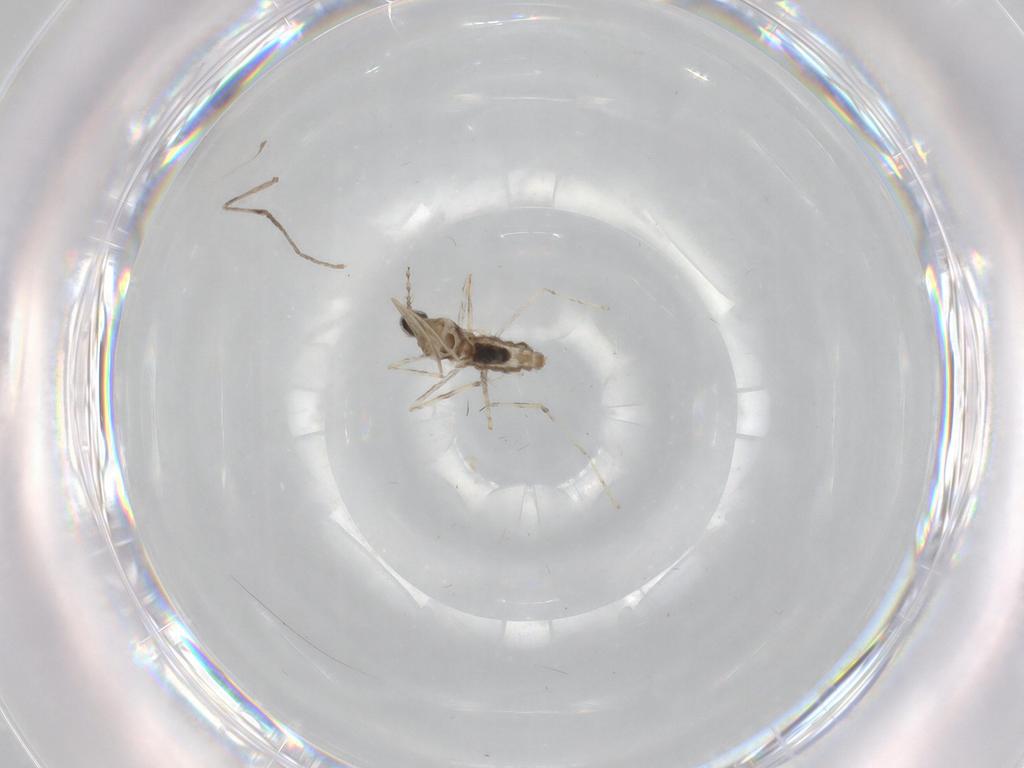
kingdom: Animalia
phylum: Arthropoda
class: Insecta
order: Diptera
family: Cecidomyiidae
